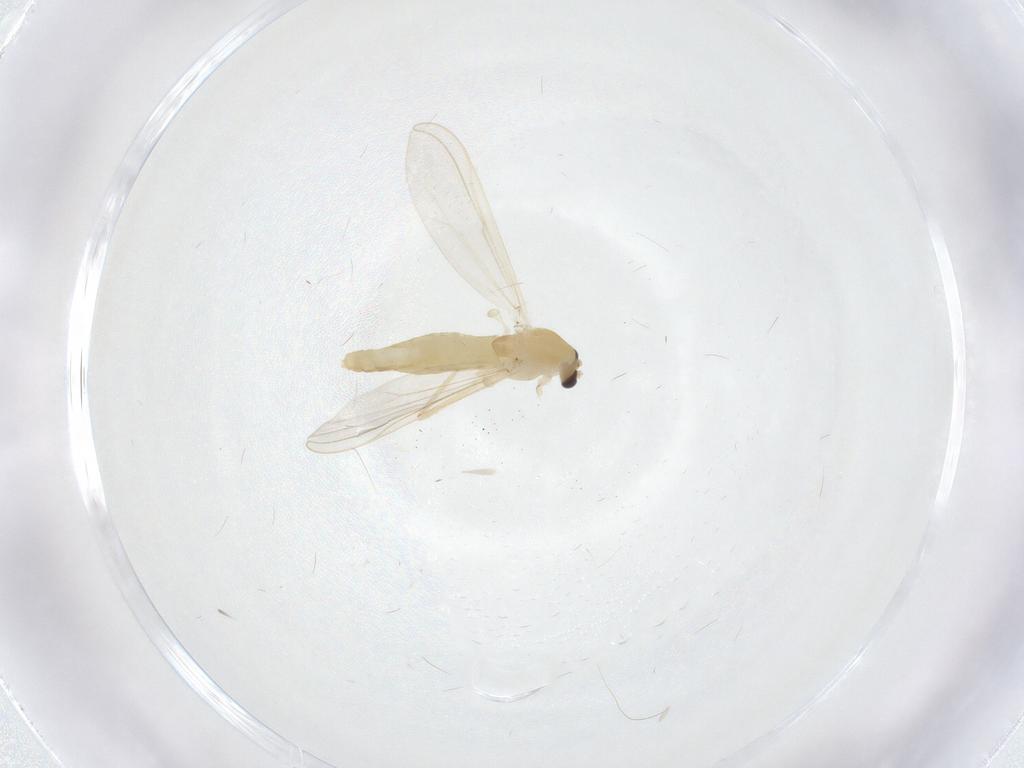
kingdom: Animalia
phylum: Arthropoda
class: Insecta
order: Diptera
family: Chironomidae
